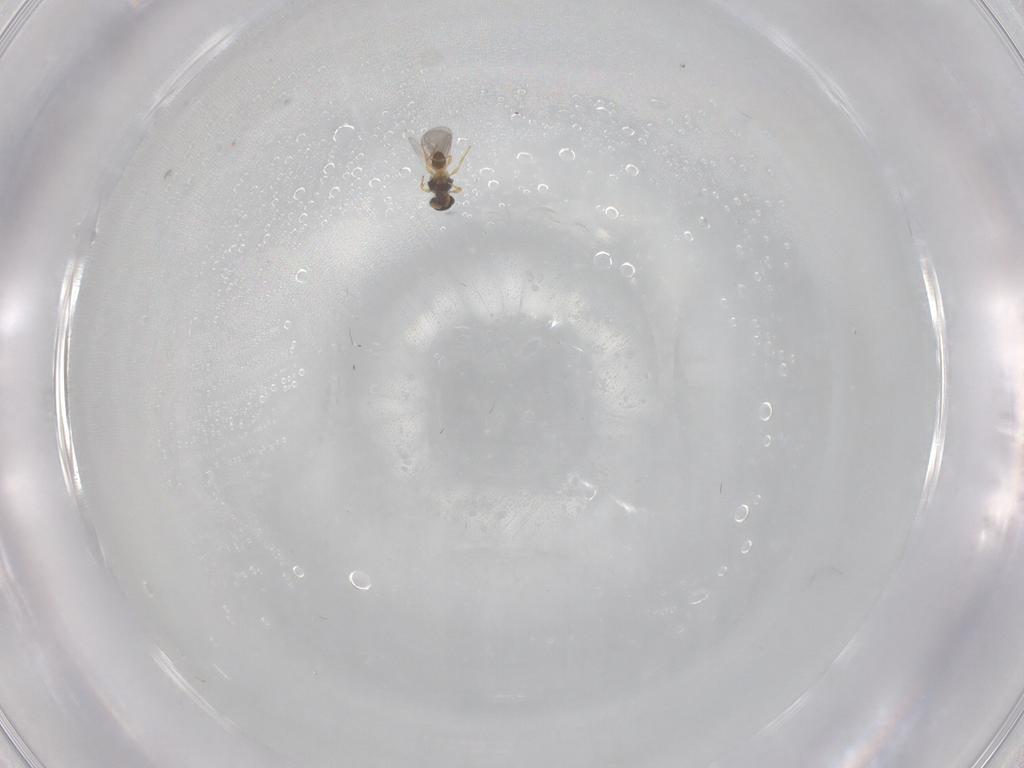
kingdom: Animalia
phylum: Arthropoda
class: Insecta
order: Hymenoptera
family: Platygastridae
